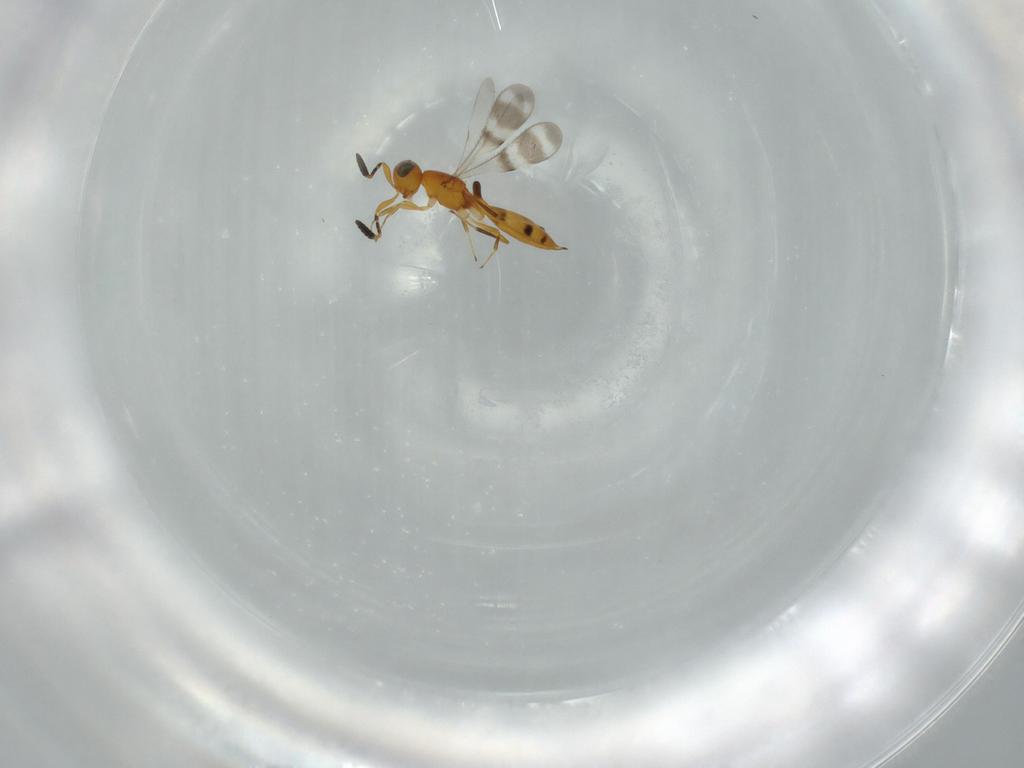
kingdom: Animalia
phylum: Arthropoda
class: Insecta
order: Hymenoptera
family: Scelionidae
